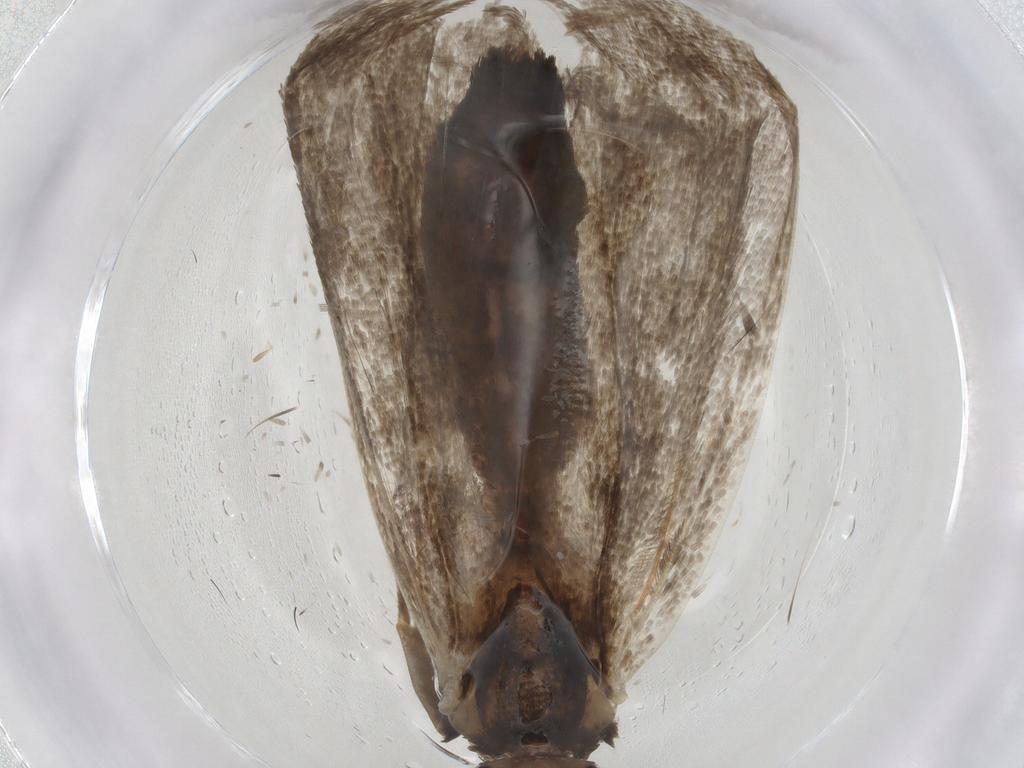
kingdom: Animalia
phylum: Arthropoda
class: Insecta
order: Lepidoptera
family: Gelechiidae
